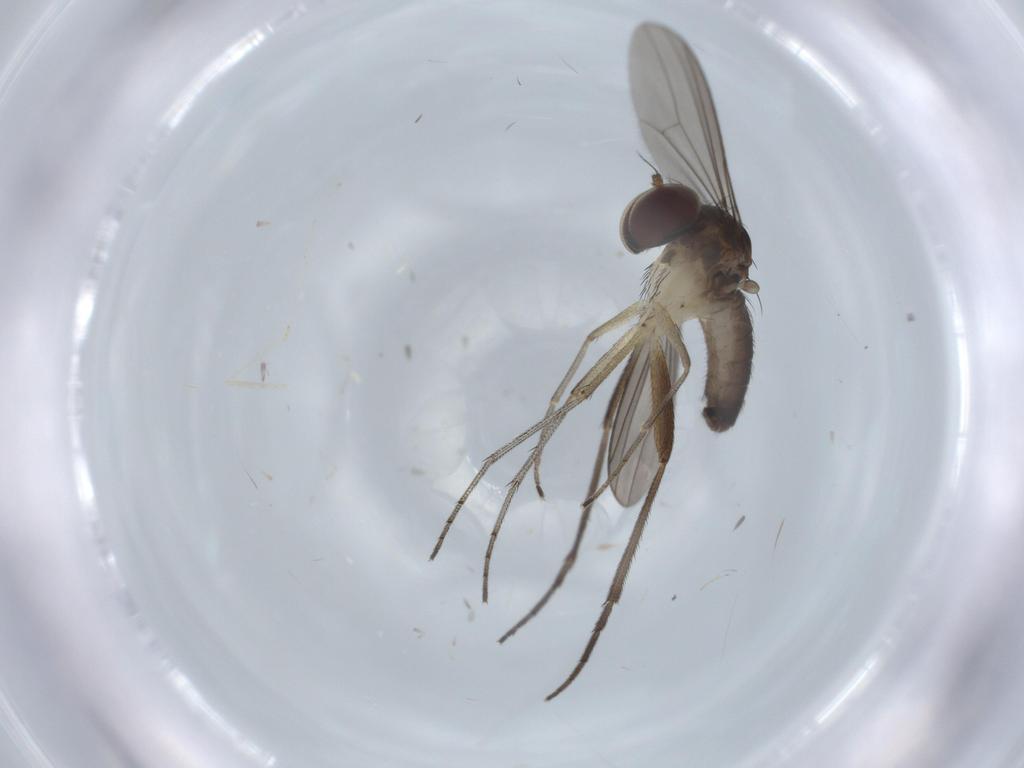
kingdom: Animalia
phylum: Arthropoda
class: Insecta
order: Diptera
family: Dolichopodidae
